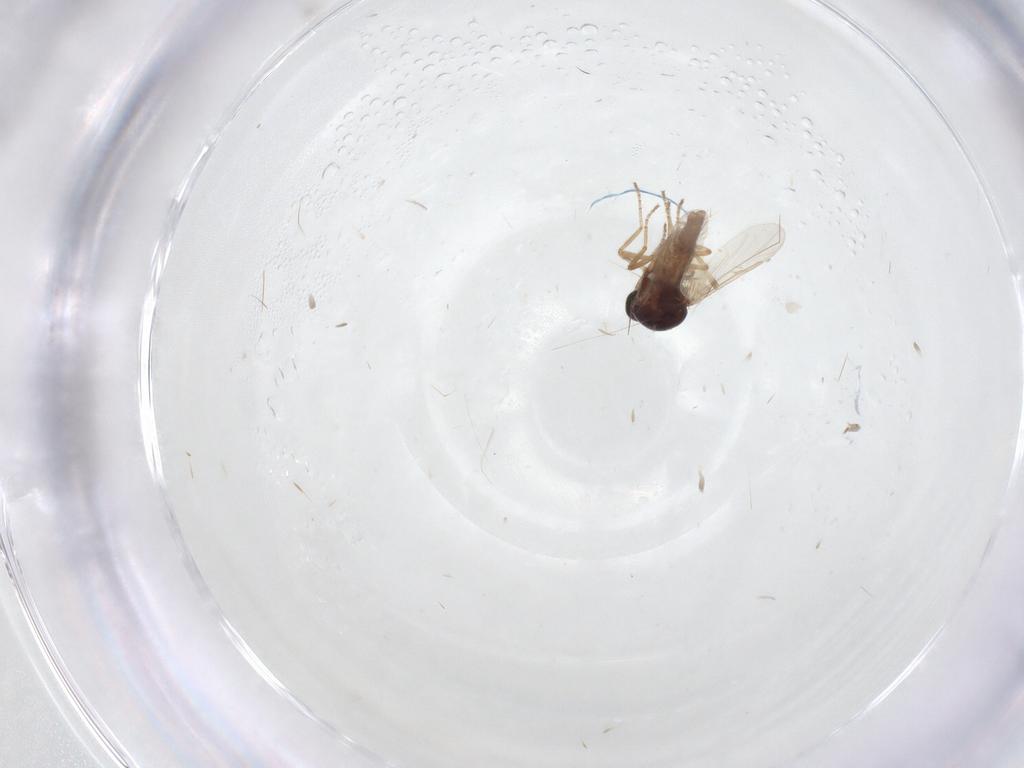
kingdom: Animalia
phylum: Arthropoda
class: Insecta
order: Diptera
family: Ceratopogonidae
